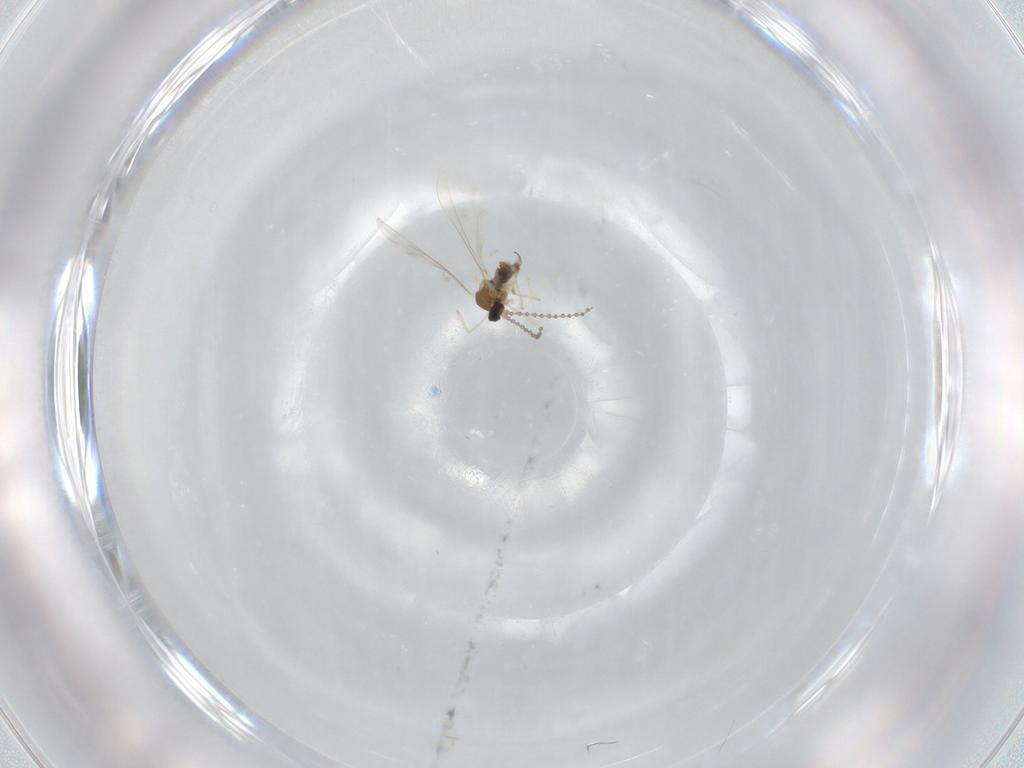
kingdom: Animalia
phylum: Arthropoda
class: Insecta
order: Diptera
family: Cecidomyiidae
